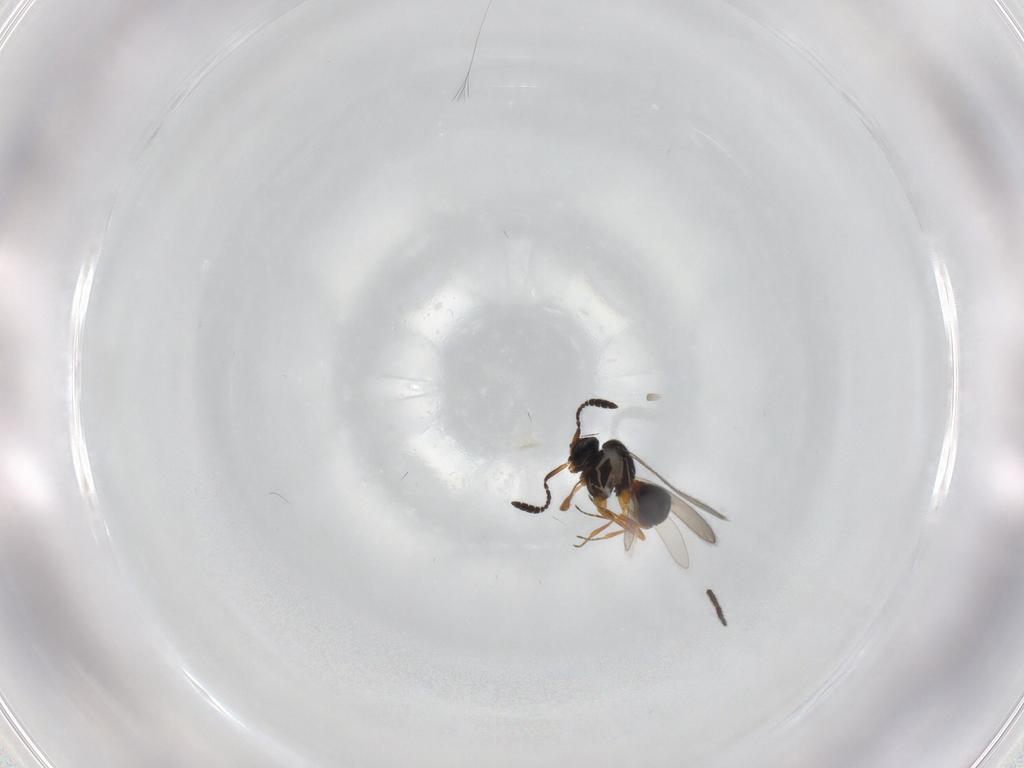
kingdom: Animalia
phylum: Arthropoda
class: Insecta
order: Hymenoptera
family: Scelionidae
